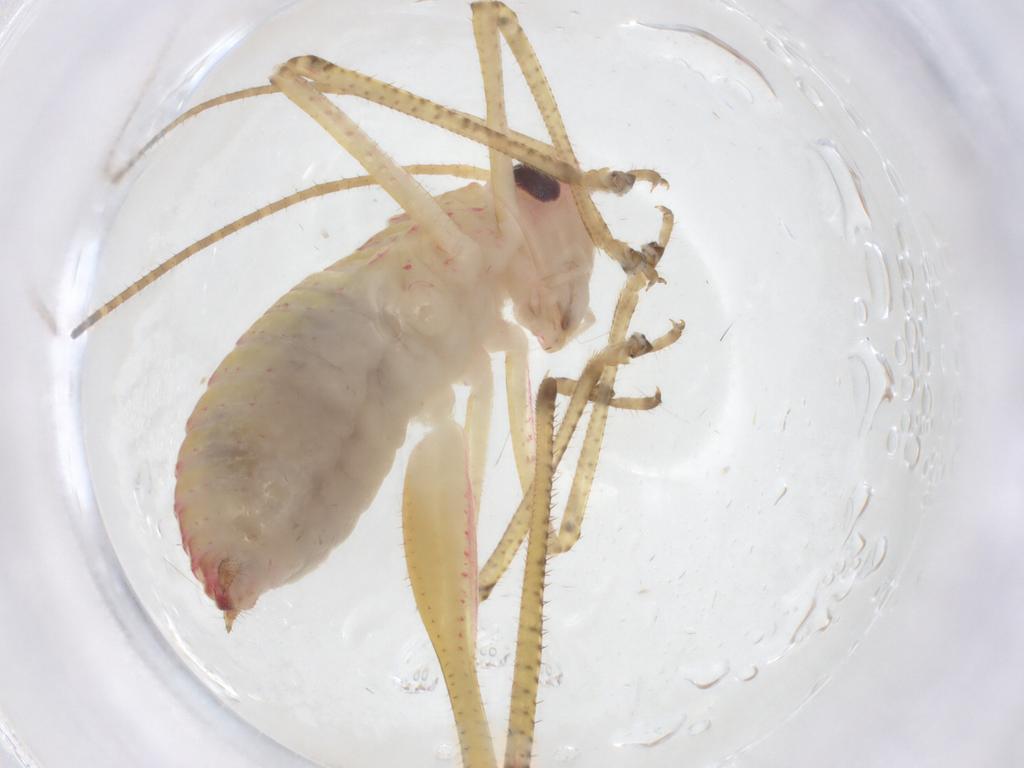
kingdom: Animalia
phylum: Arthropoda
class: Insecta
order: Orthoptera
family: Tettigoniidae
